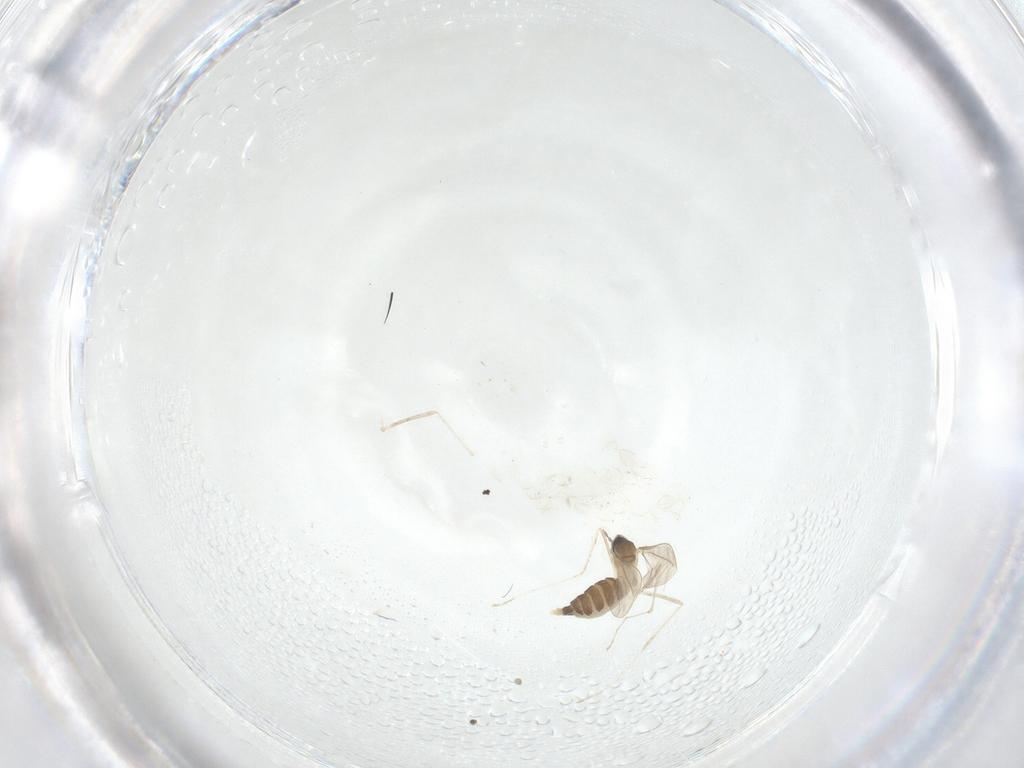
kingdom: Animalia
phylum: Arthropoda
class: Insecta
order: Diptera
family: Cecidomyiidae
